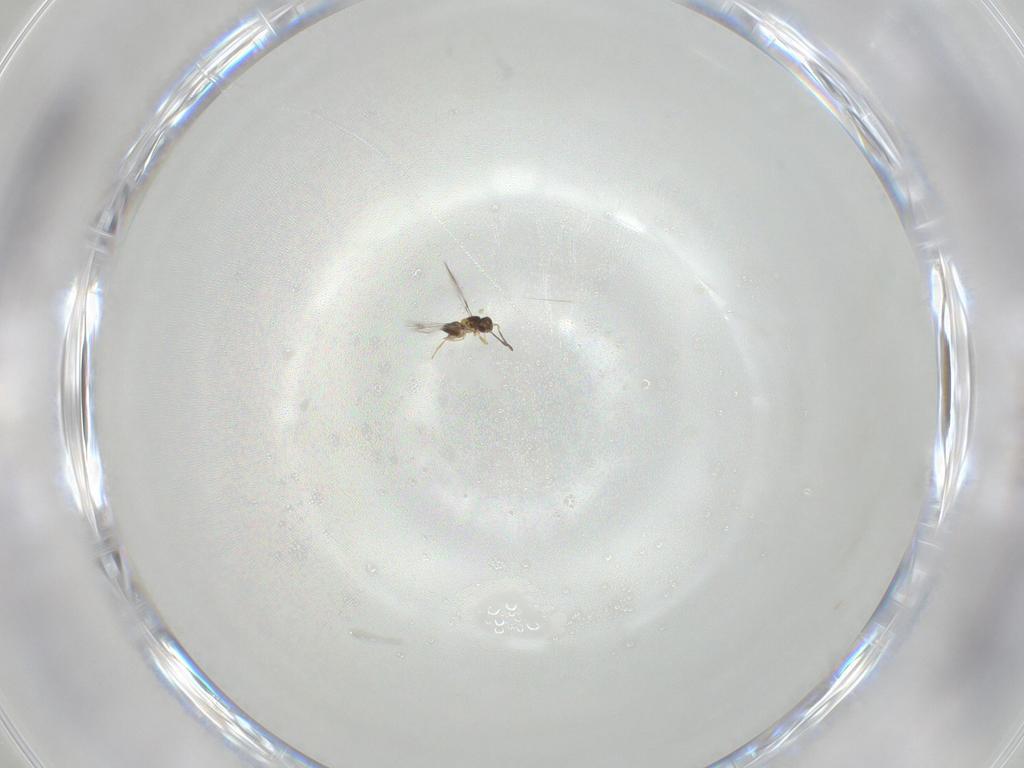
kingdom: Animalia
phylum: Arthropoda
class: Insecta
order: Hymenoptera
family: Mymaridae
